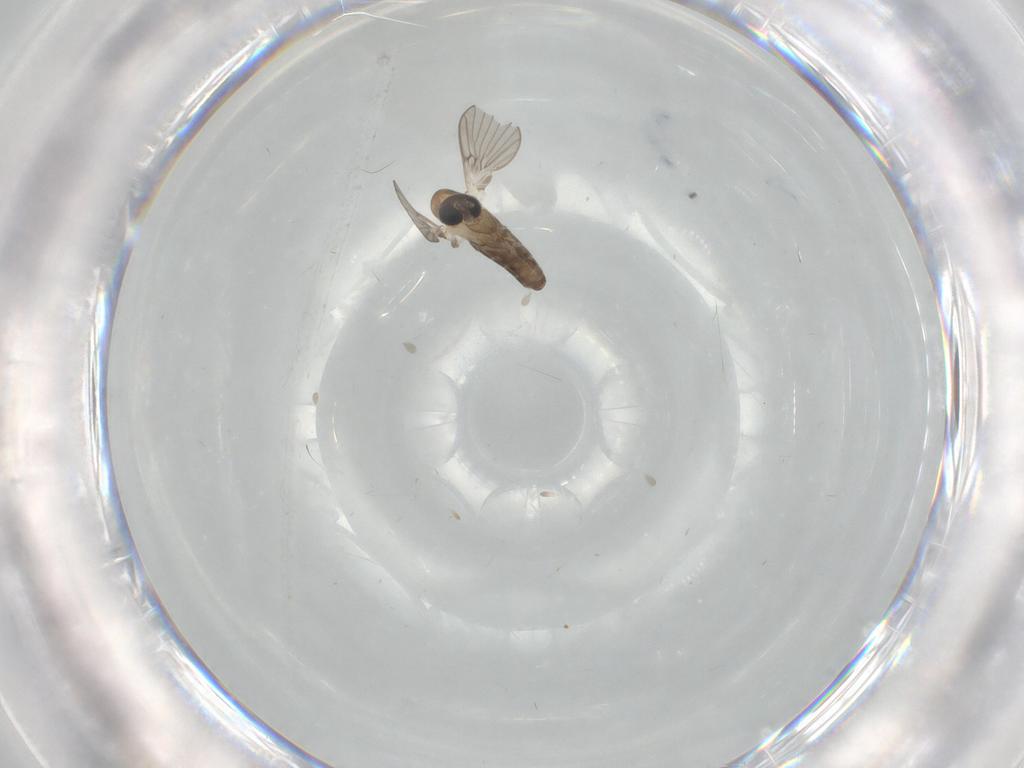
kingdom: Animalia
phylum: Arthropoda
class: Insecta
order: Diptera
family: Psychodidae
